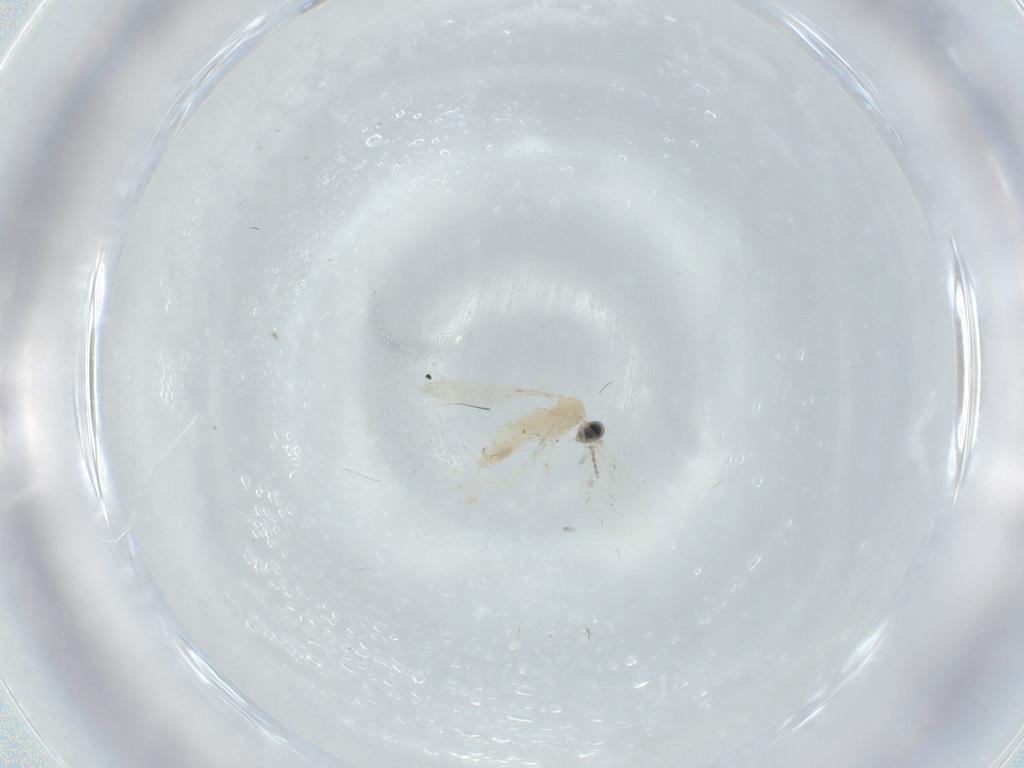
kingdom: Animalia
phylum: Arthropoda
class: Insecta
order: Diptera
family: Cecidomyiidae
